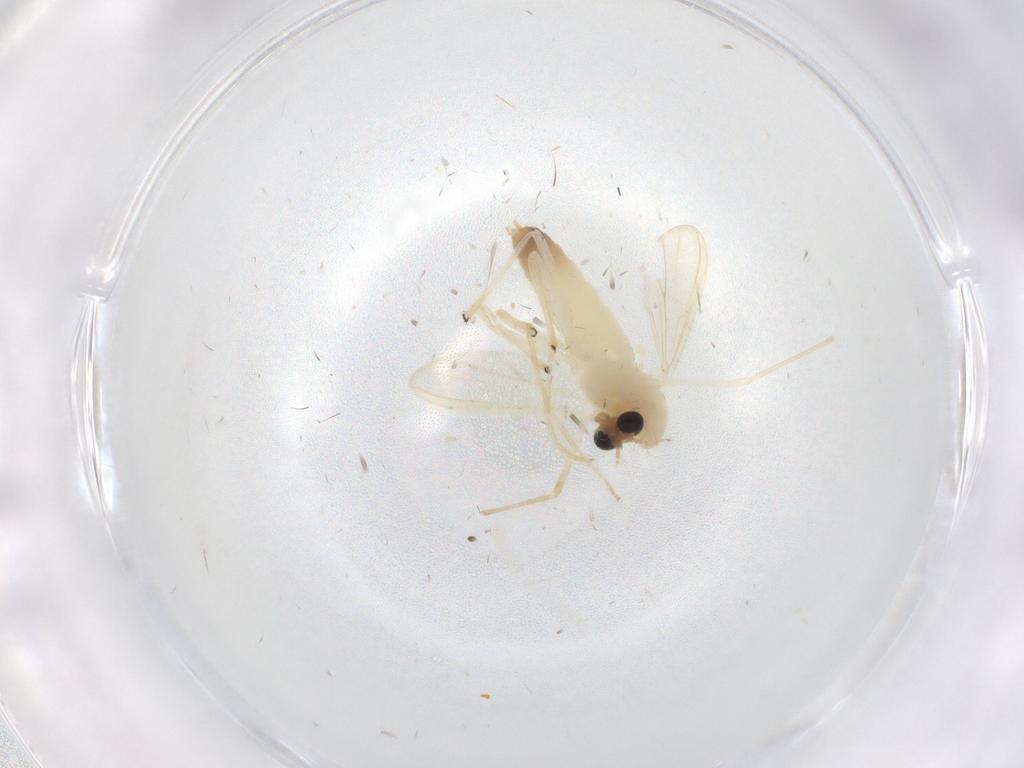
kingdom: Animalia
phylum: Arthropoda
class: Insecta
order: Diptera
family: Chironomidae
